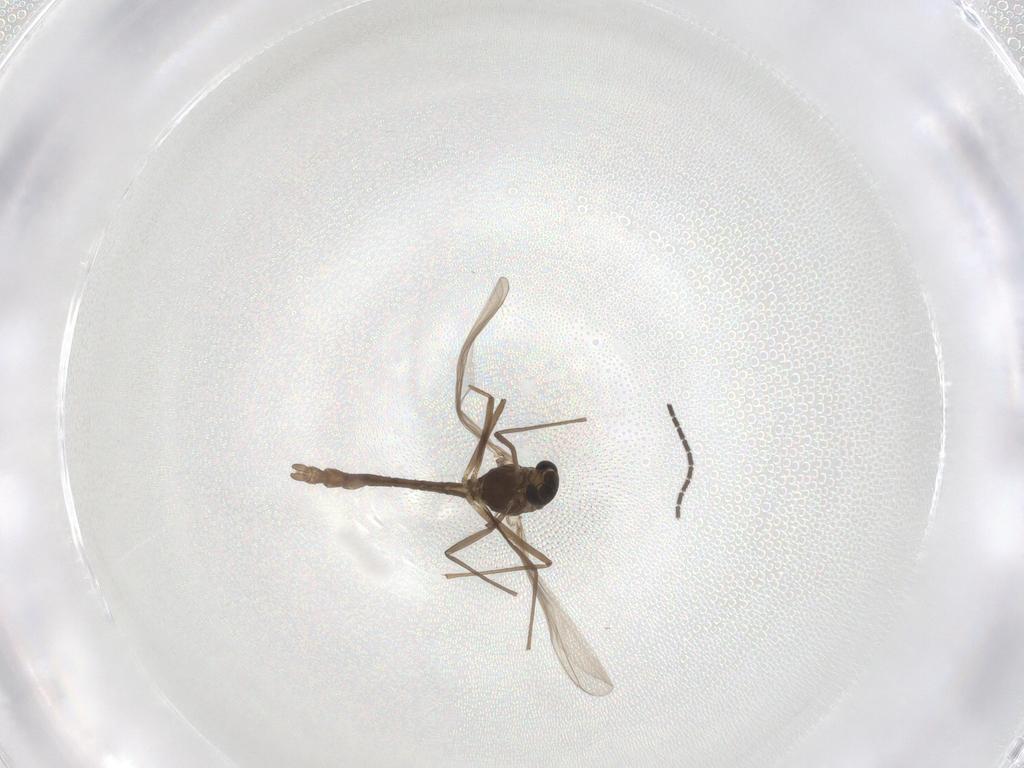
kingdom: Animalia
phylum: Arthropoda
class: Insecta
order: Diptera
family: Chironomidae
